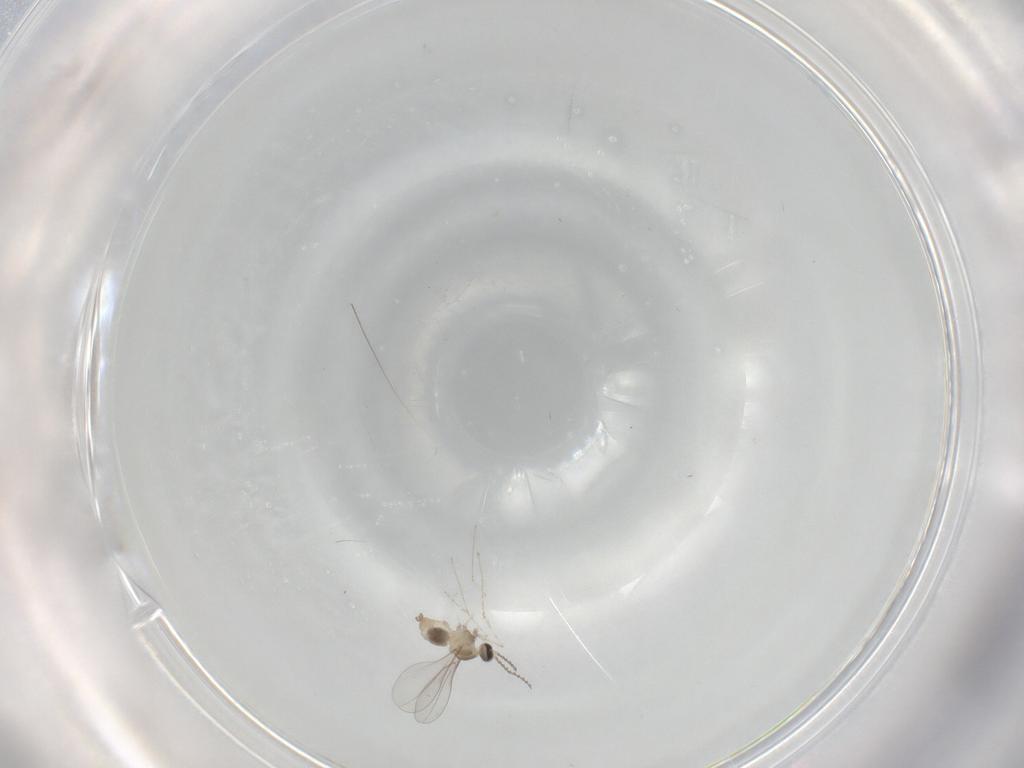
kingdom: Animalia
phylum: Arthropoda
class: Insecta
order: Diptera
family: Cecidomyiidae
